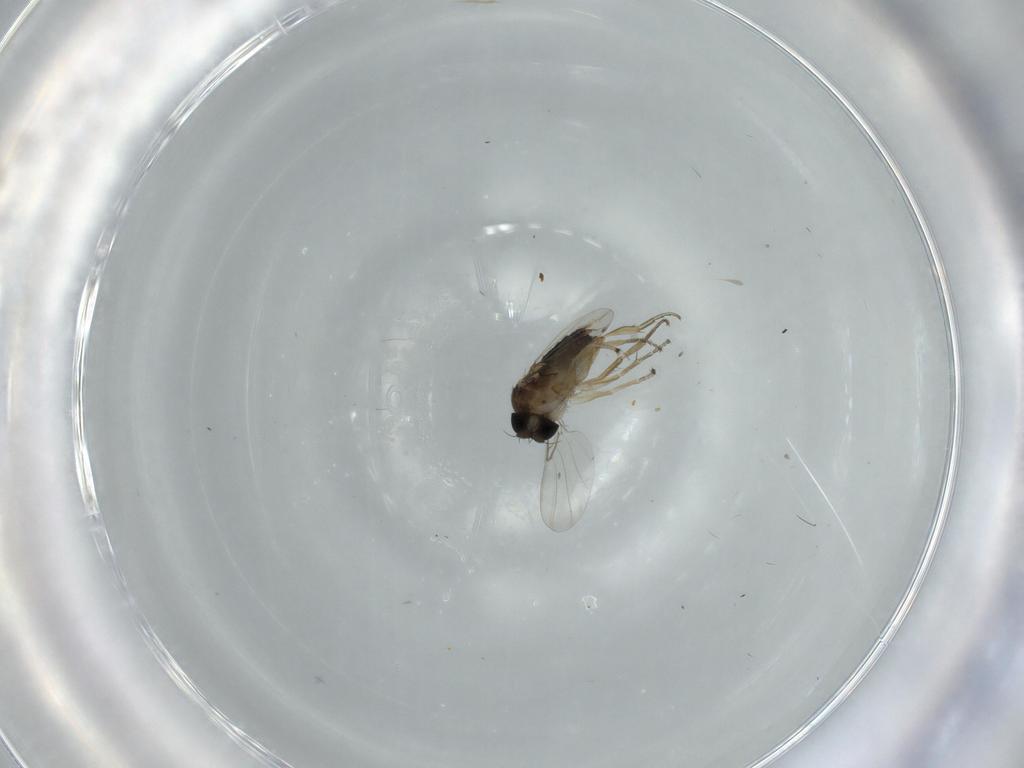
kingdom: Animalia
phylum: Arthropoda
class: Insecta
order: Diptera
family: Phoridae
